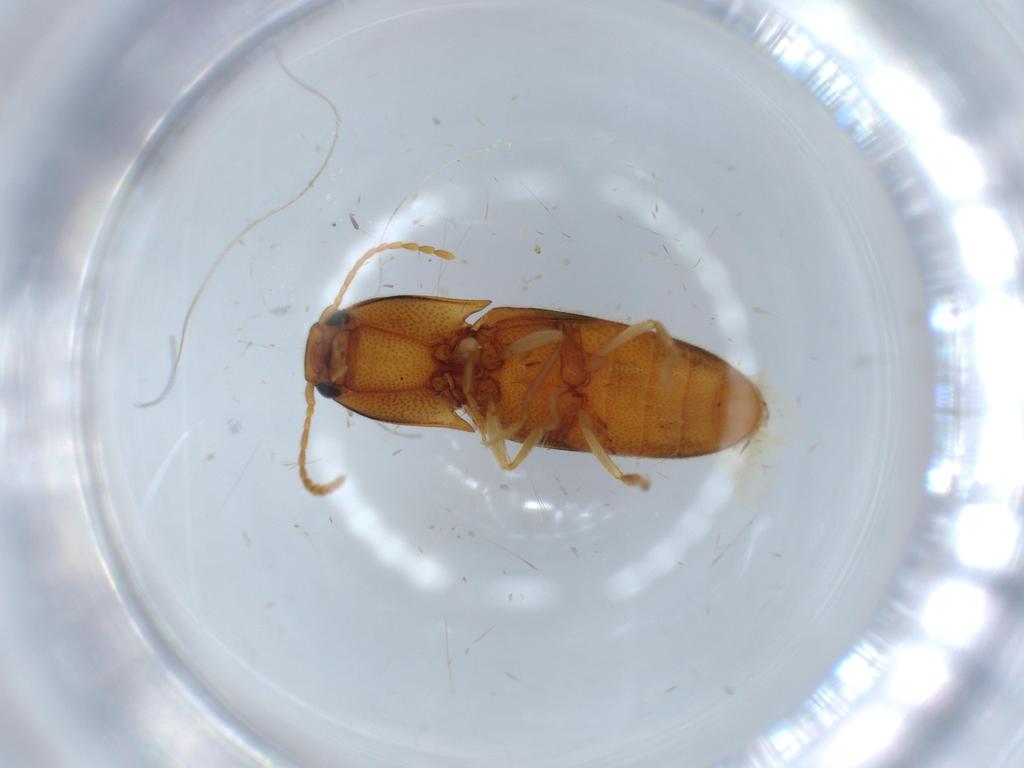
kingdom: Animalia
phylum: Arthropoda
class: Insecta
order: Coleoptera
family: Elateridae
